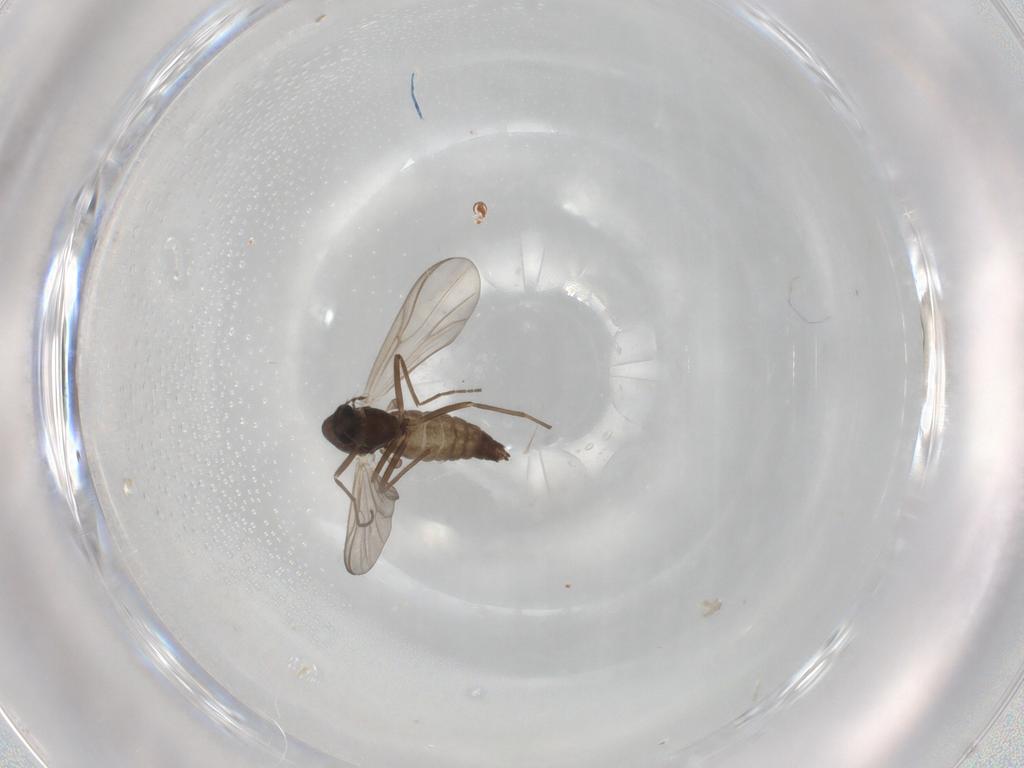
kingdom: Animalia
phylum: Arthropoda
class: Insecta
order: Diptera
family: Chironomidae
